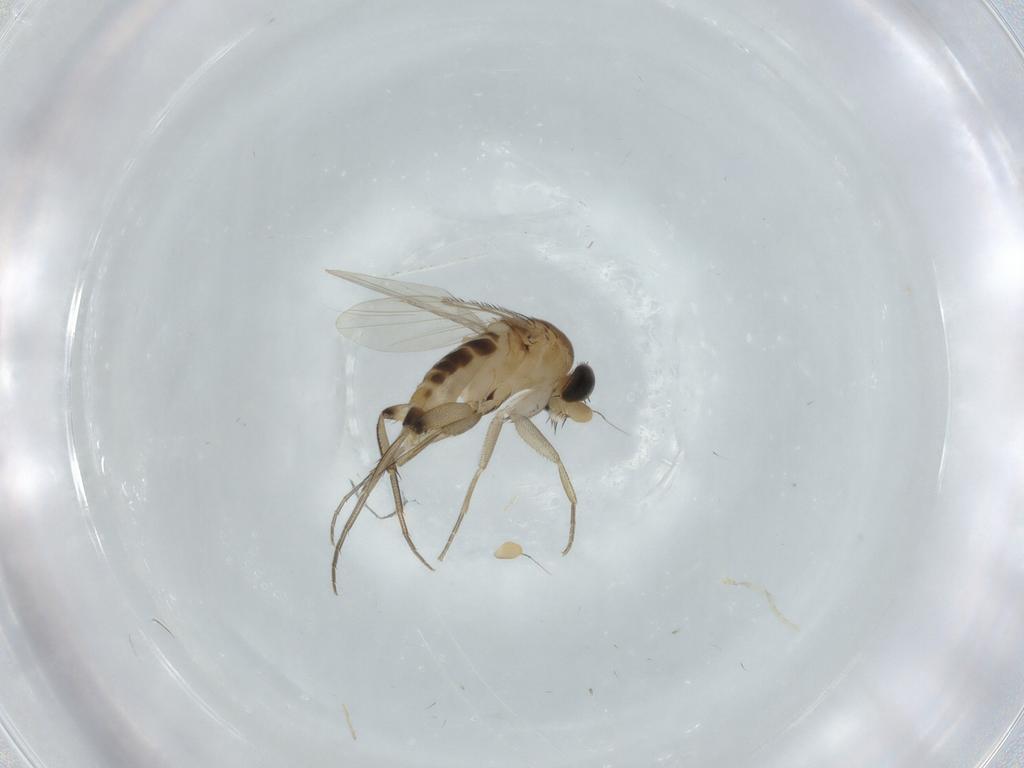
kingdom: Animalia
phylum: Arthropoda
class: Insecta
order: Diptera
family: Phoridae
